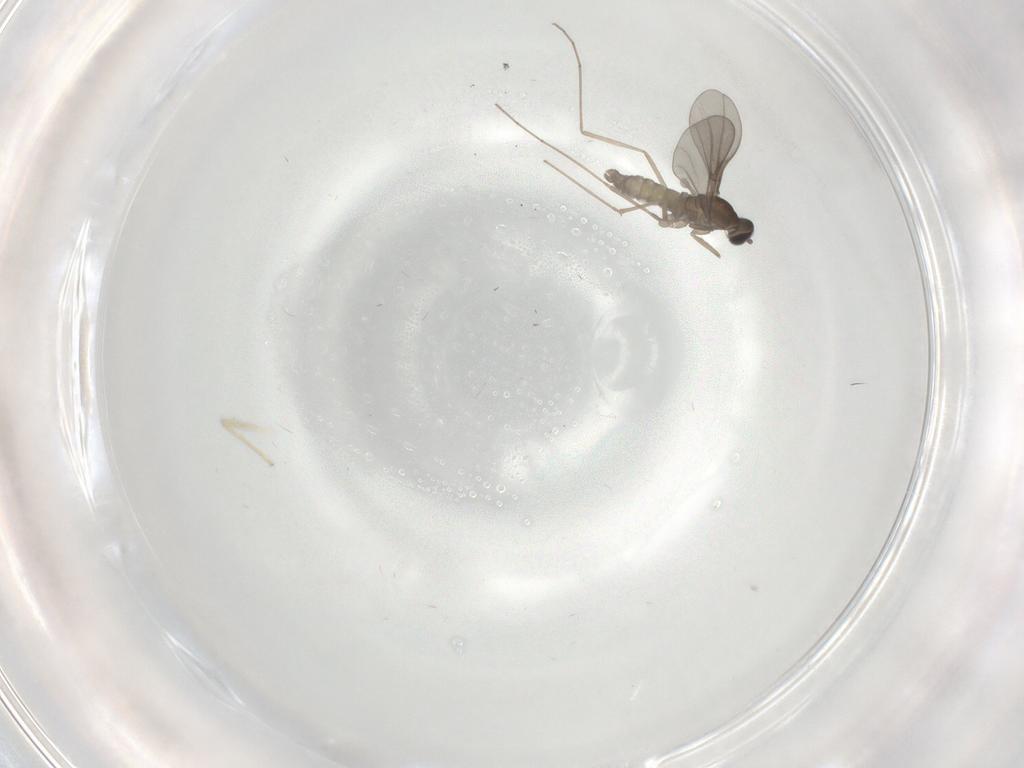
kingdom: Animalia
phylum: Arthropoda
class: Insecta
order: Diptera
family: Cecidomyiidae
